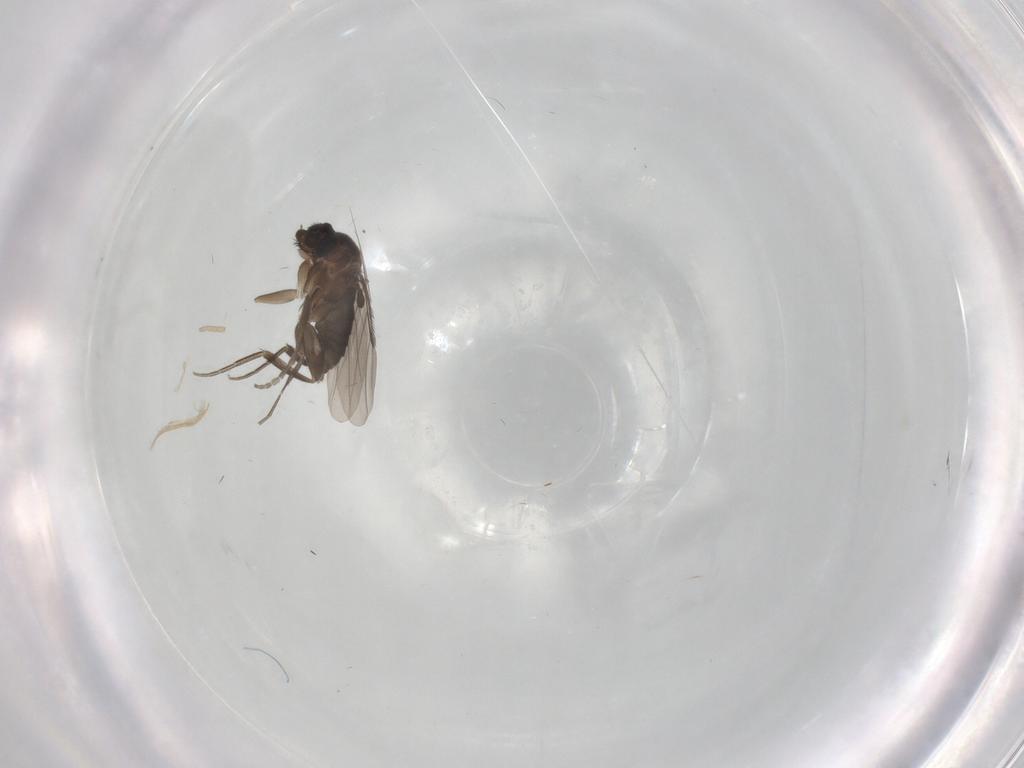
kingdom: Animalia
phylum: Arthropoda
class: Insecta
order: Diptera
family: Phoridae
